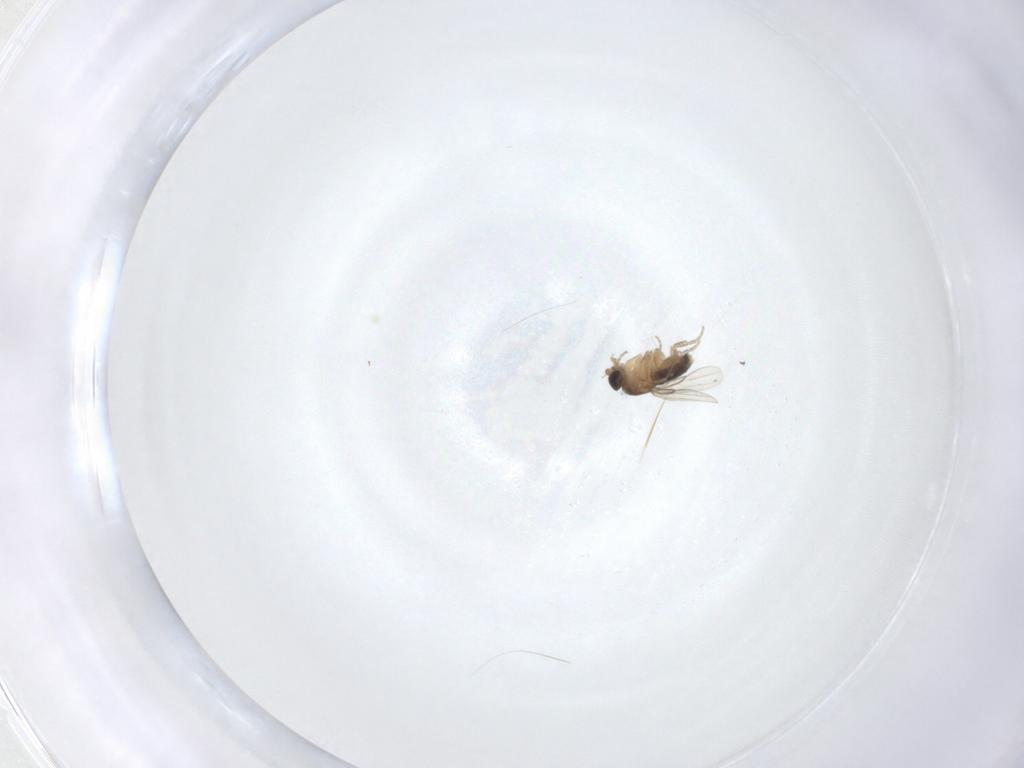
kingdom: Animalia
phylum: Arthropoda
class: Insecta
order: Diptera
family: Phoridae
